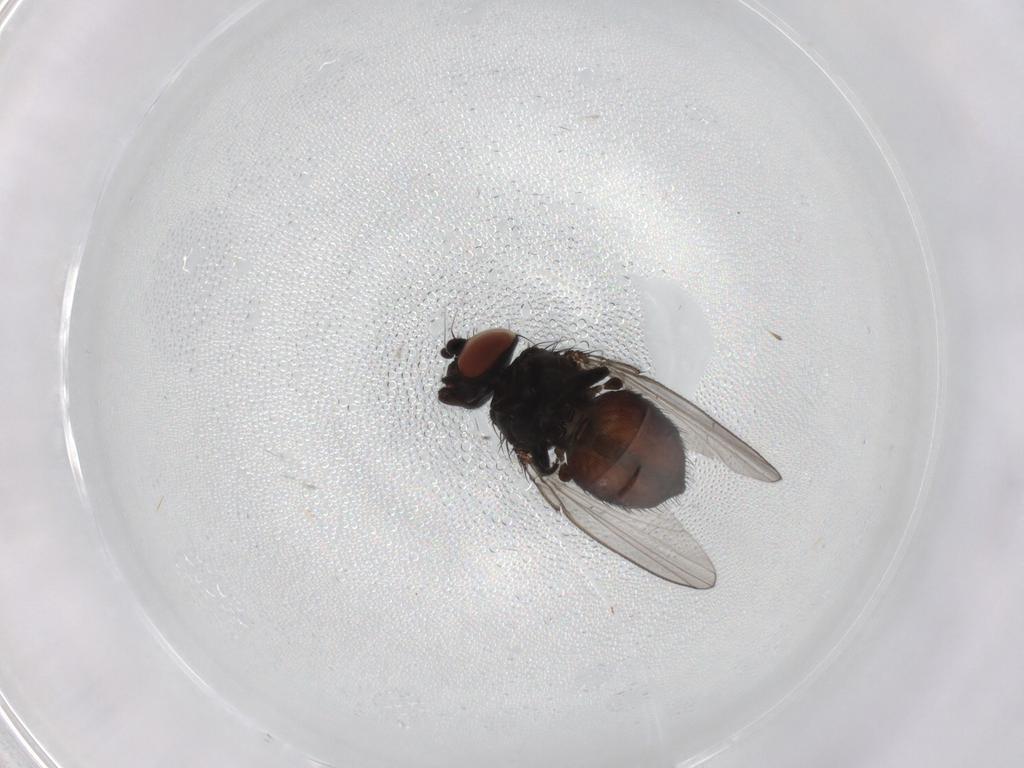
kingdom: Animalia
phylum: Arthropoda
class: Insecta
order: Diptera
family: Milichiidae
